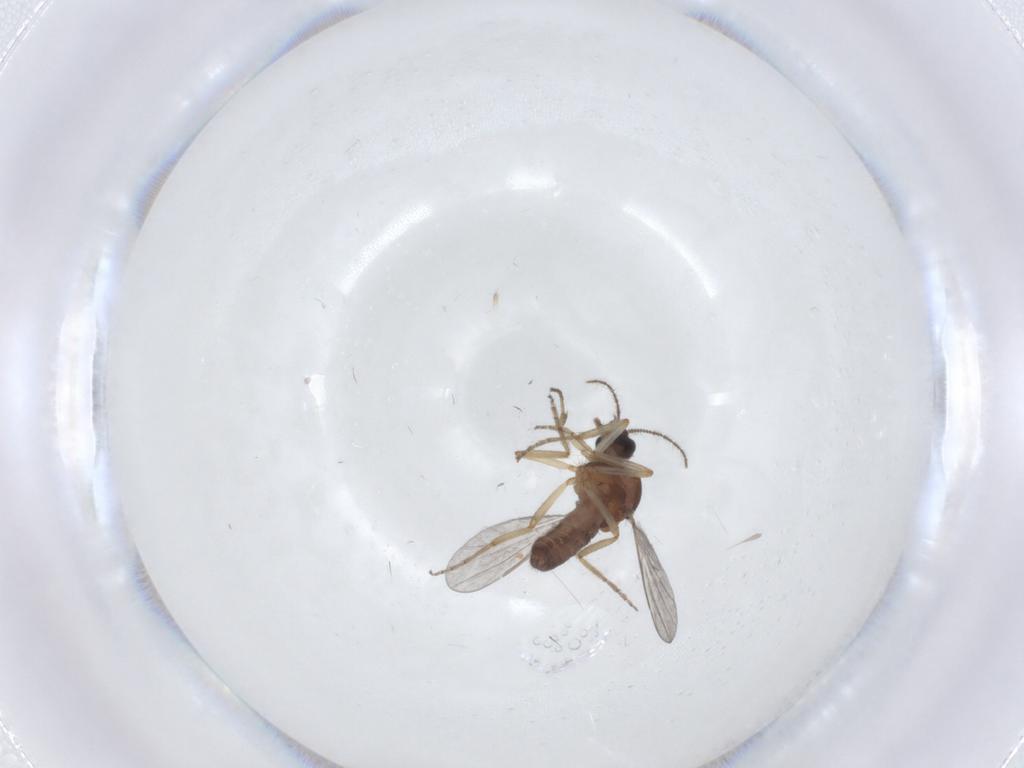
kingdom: Animalia
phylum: Arthropoda
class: Insecta
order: Diptera
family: Ceratopogonidae
